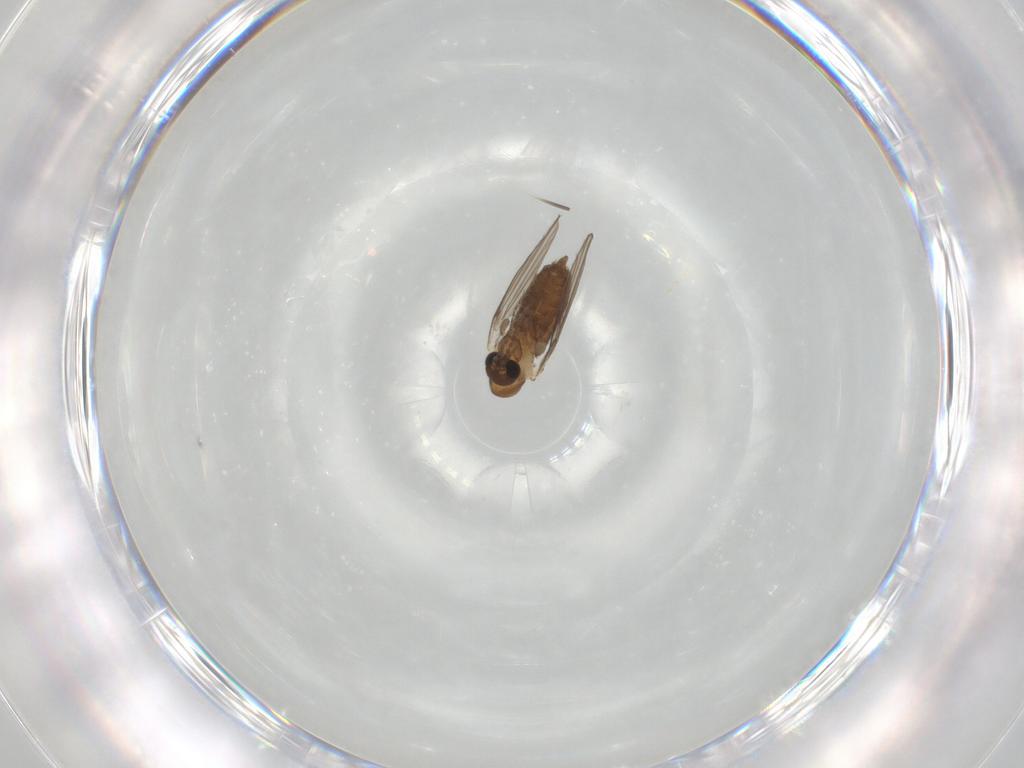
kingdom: Animalia
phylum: Arthropoda
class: Insecta
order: Diptera
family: Psychodidae
